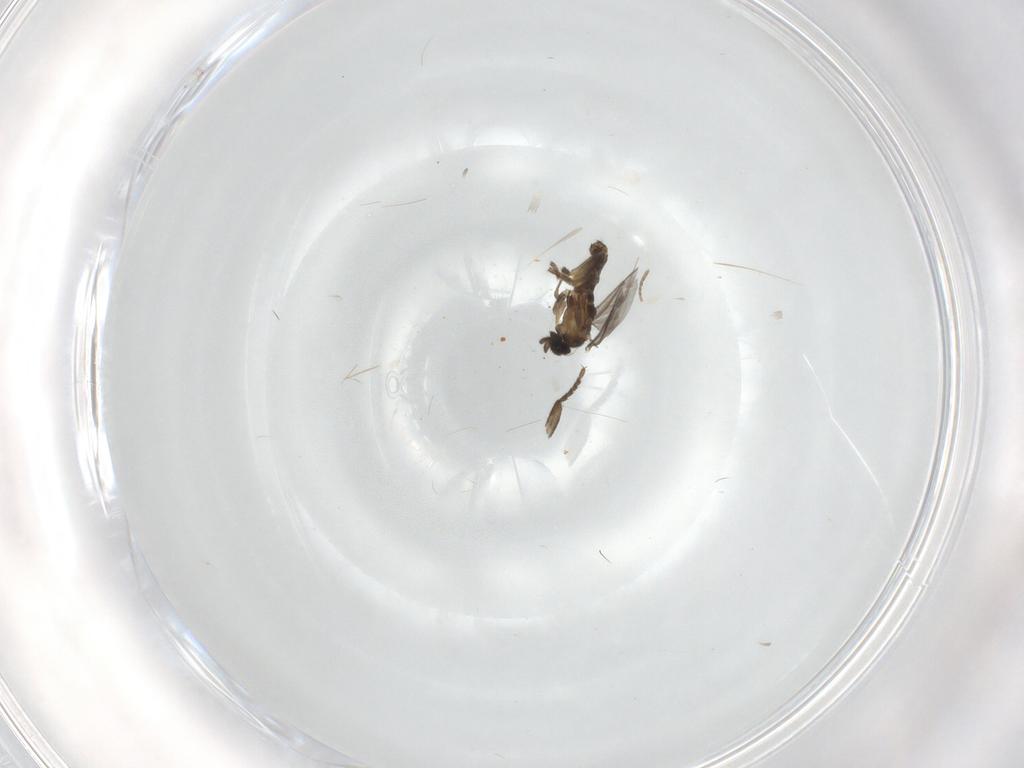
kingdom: Animalia
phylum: Arthropoda
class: Insecta
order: Diptera
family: Phoridae
